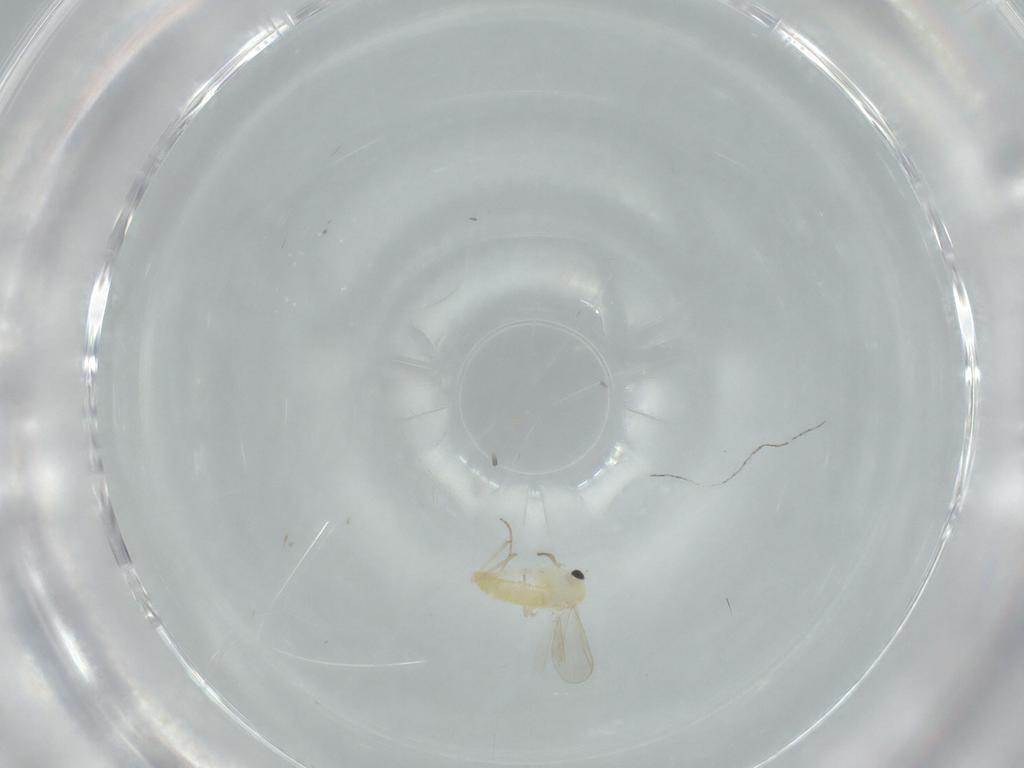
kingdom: Animalia
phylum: Arthropoda
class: Insecta
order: Diptera
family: Chironomidae
